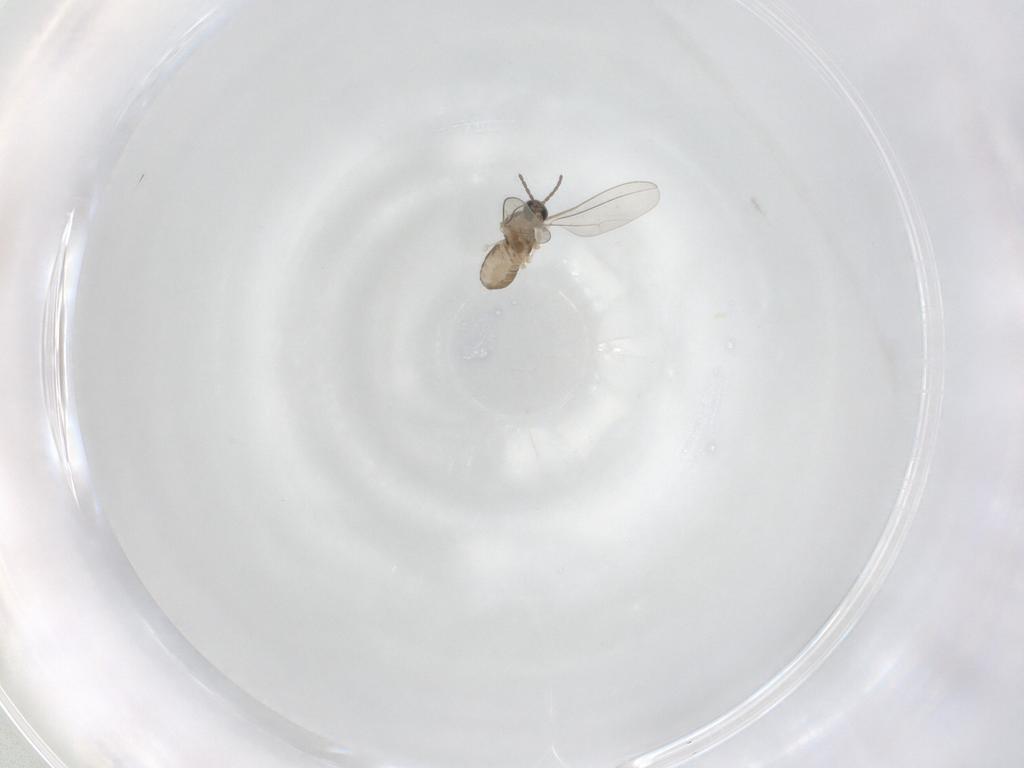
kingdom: Animalia
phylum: Arthropoda
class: Insecta
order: Diptera
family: Cecidomyiidae
